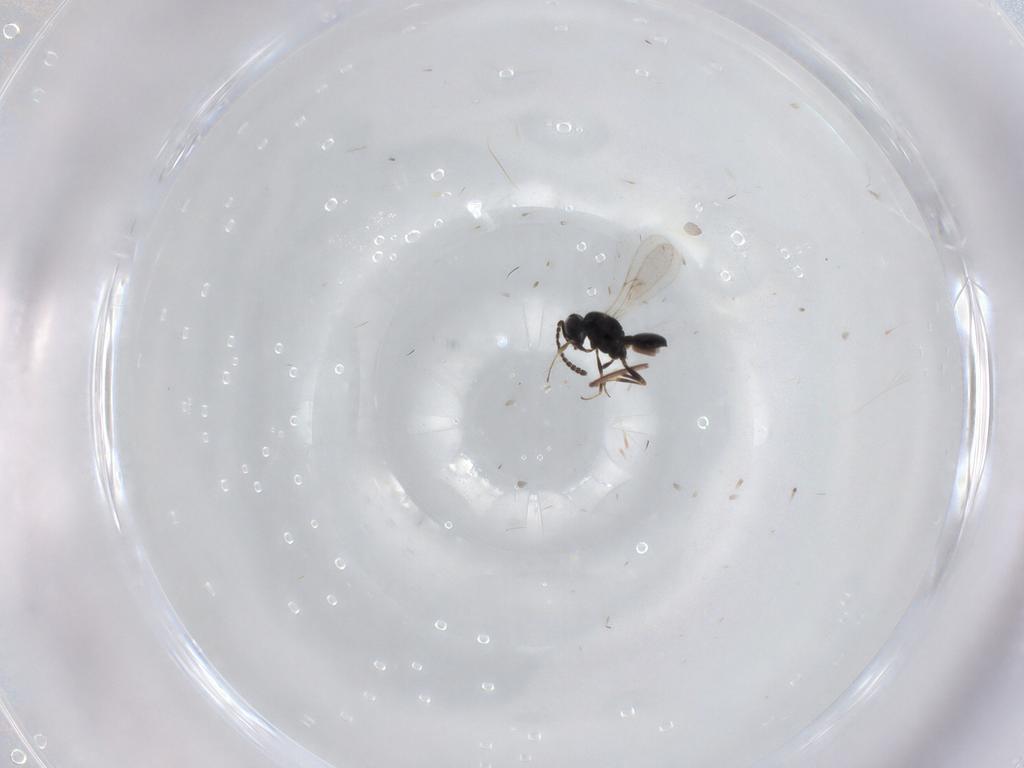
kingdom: Animalia
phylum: Arthropoda
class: Insecta
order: Hymenoptera
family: Scelionidae
